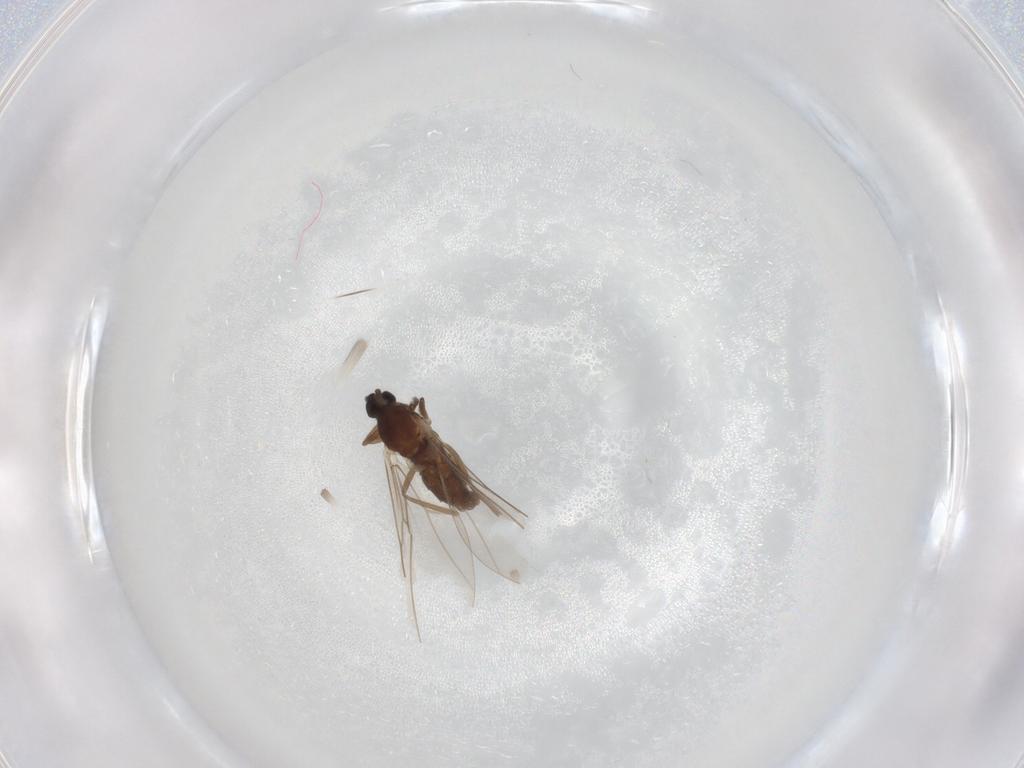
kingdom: Animalia
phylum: Arthropoda
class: Insecta
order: Diptera
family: Cecidomyiidae
